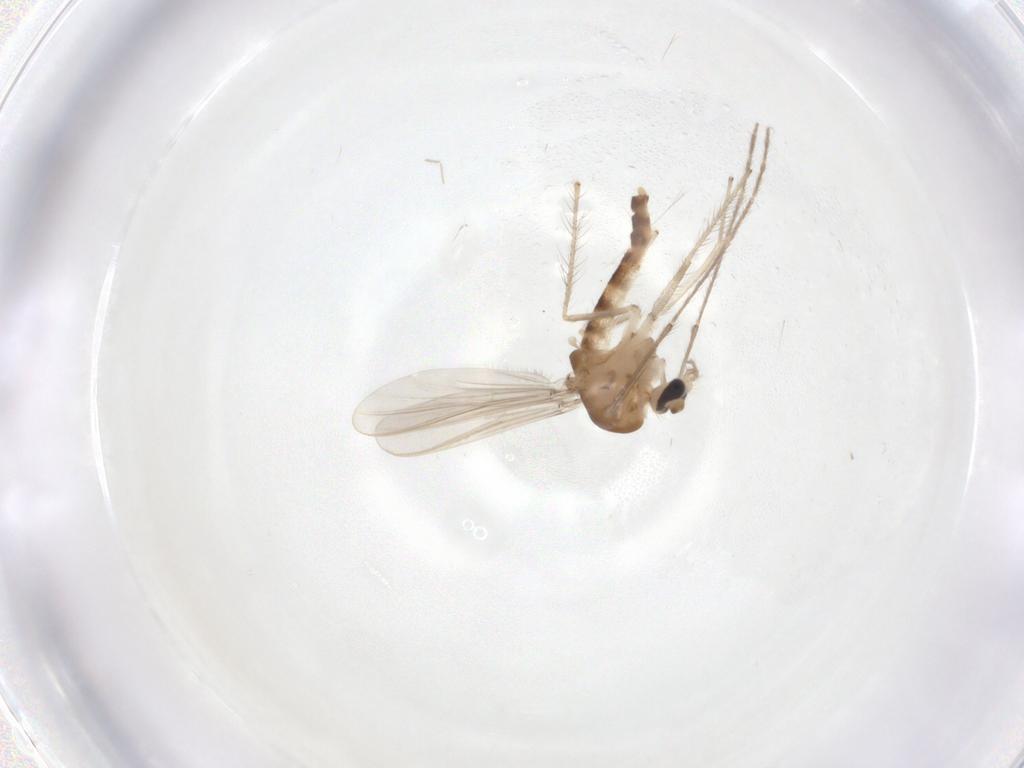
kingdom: Animalia
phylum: Arthropoda
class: Insecta
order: Diptera
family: Chironomidae
